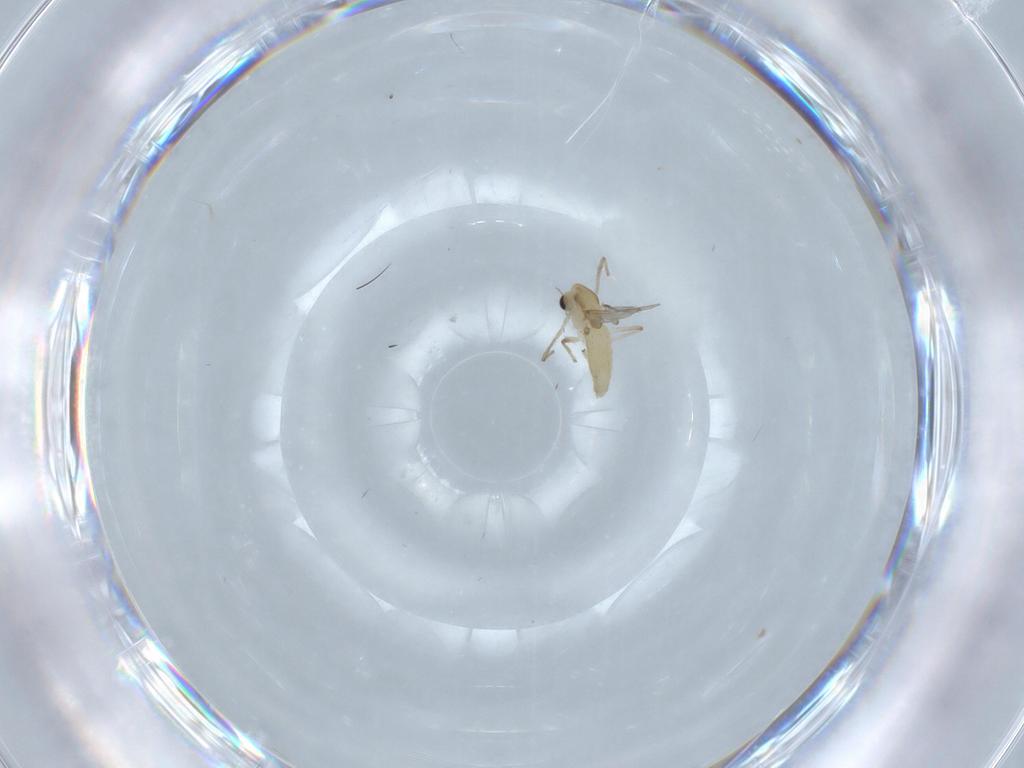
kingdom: Animalia
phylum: Arthropoda
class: Insecta
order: Diptera
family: Chironomidae
